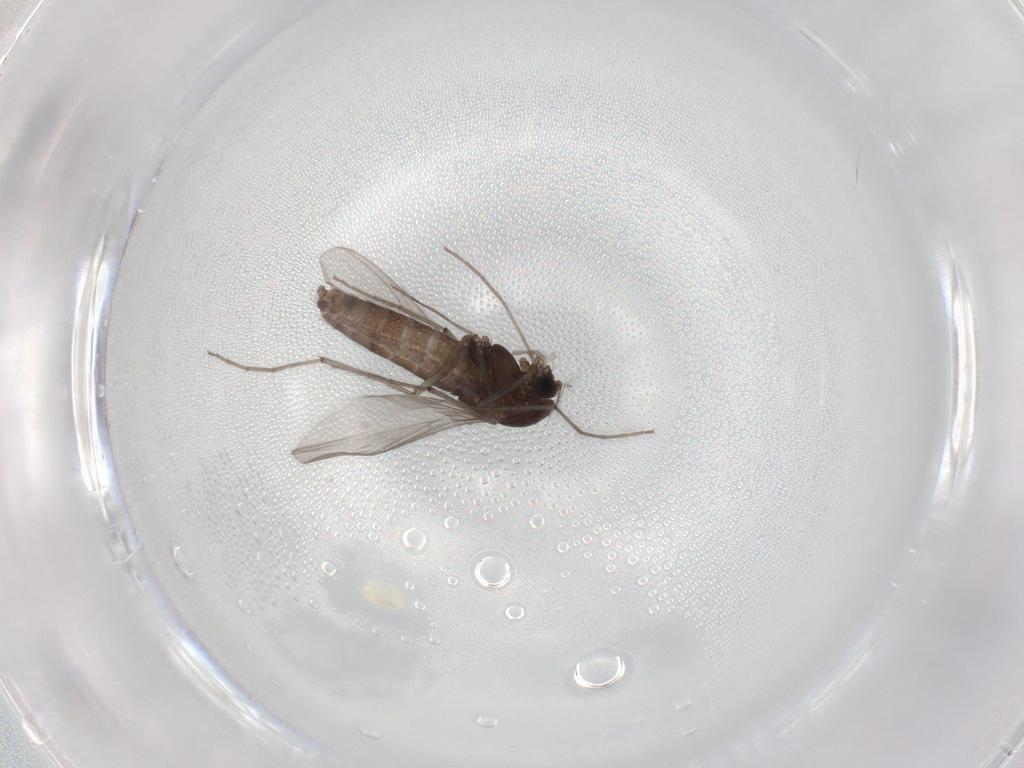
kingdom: Animalia
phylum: Arthropoda
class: Insecta
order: Diptera
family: Chironomidae
